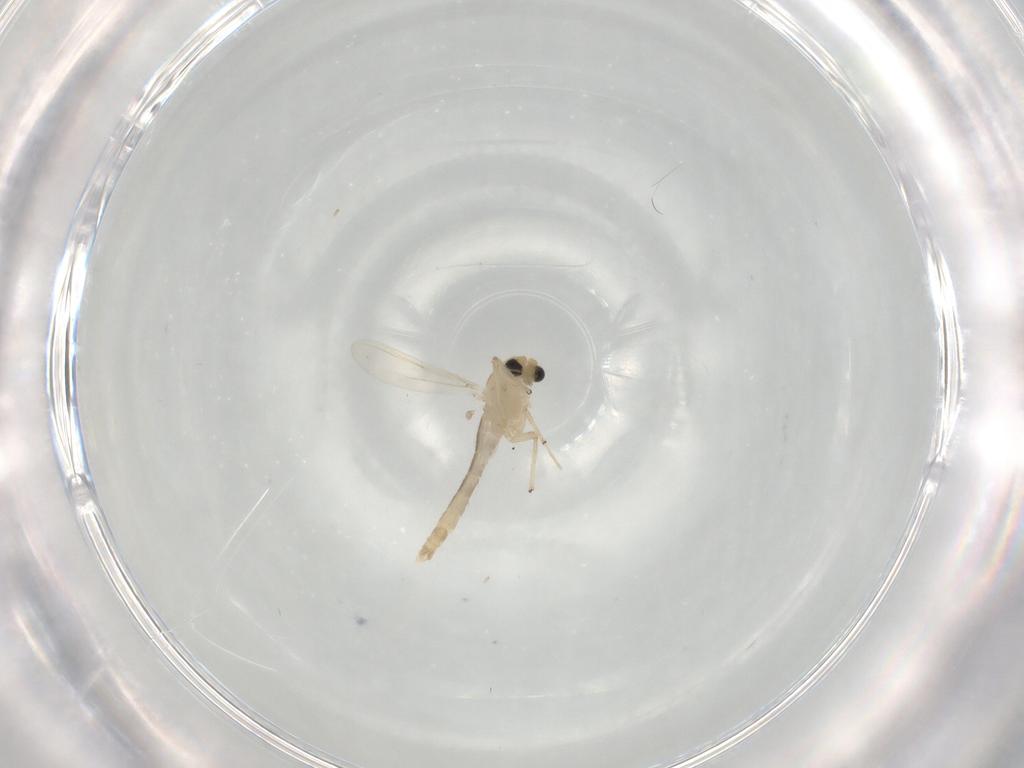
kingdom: Animalia
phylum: Arthropoda
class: Insecta
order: Diptera
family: Chironomidae
